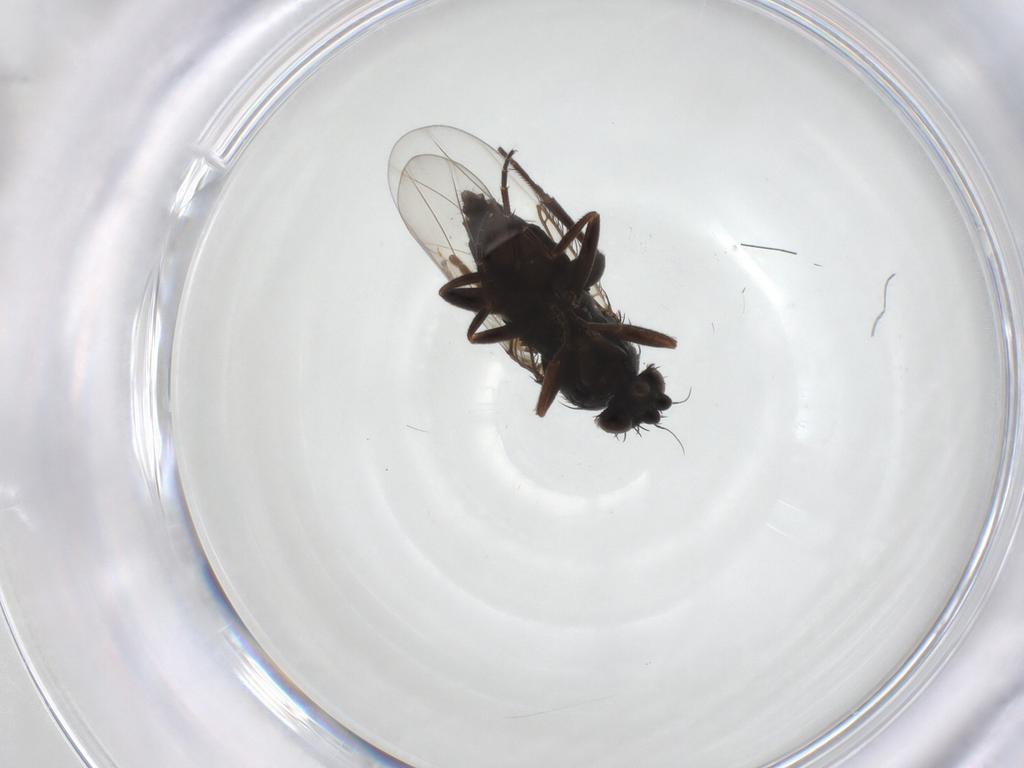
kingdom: Animalia
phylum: Arthropoda
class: Insecta
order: Diptera
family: Phoridae
